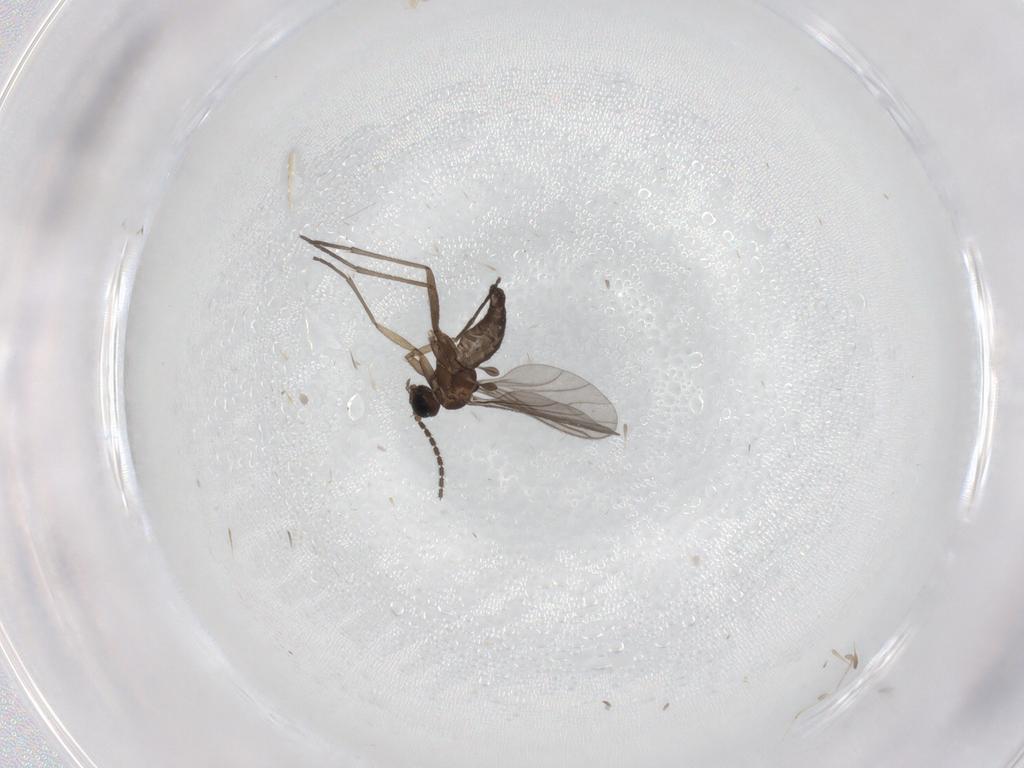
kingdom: Animalia
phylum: Arthropoda
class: Insecta
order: Diptera
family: Sciaridae
